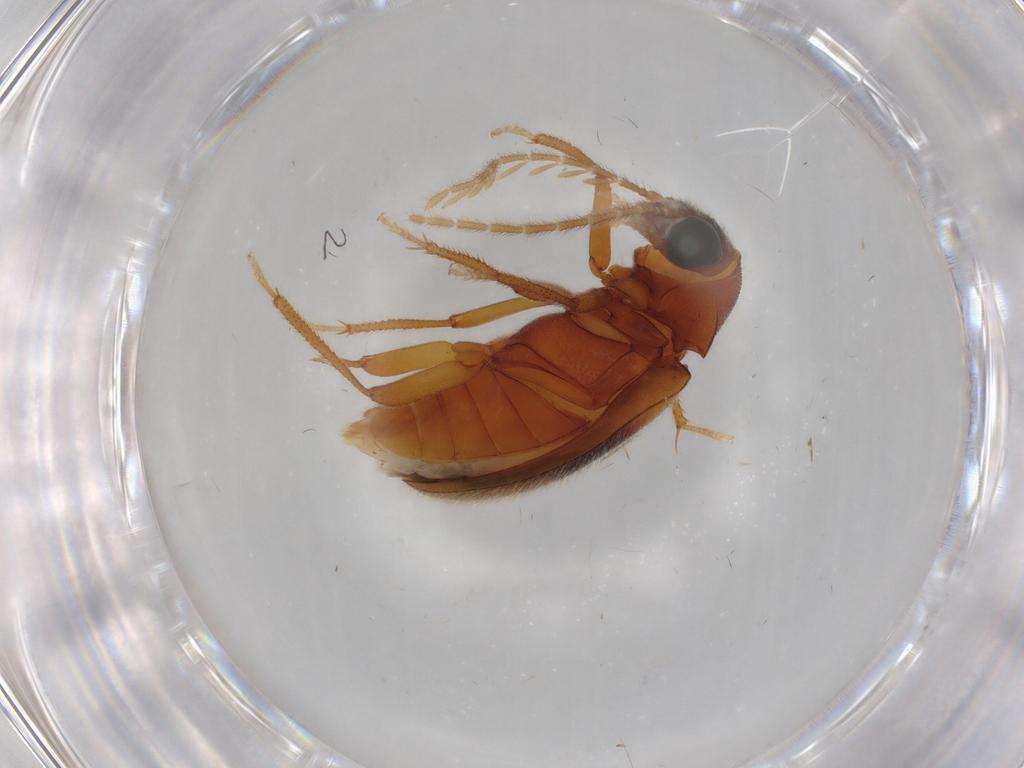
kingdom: Animalia
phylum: Arthropoda
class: Insecta
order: Coleoptera
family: Ptilodactylidae
